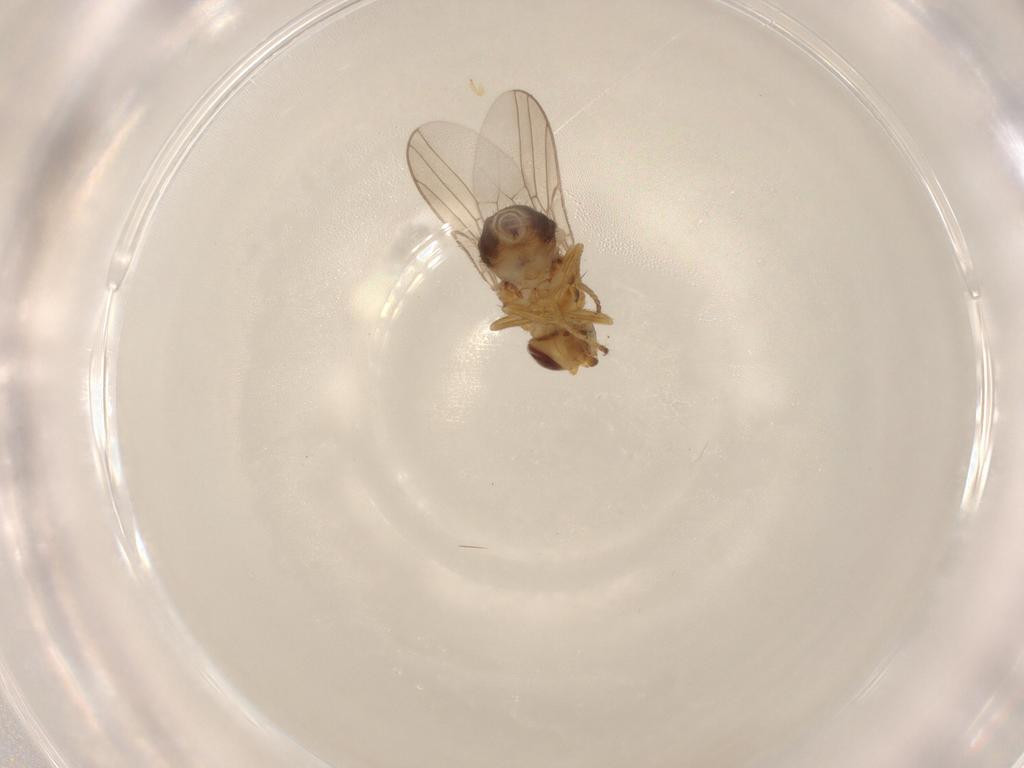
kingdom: Animalia
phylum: Arthropoda
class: Insecta
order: Diptera
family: Chloropidae
